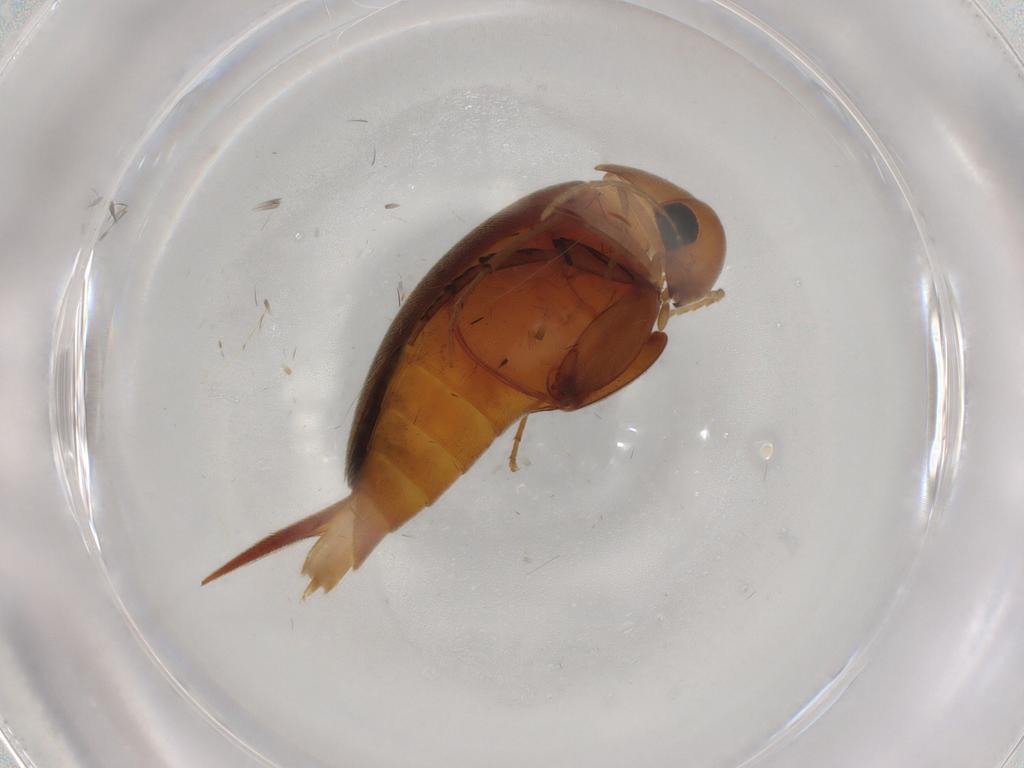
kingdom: Animalia
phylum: Arthropoda
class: Insecta
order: Coleoptera
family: Mordellidae
